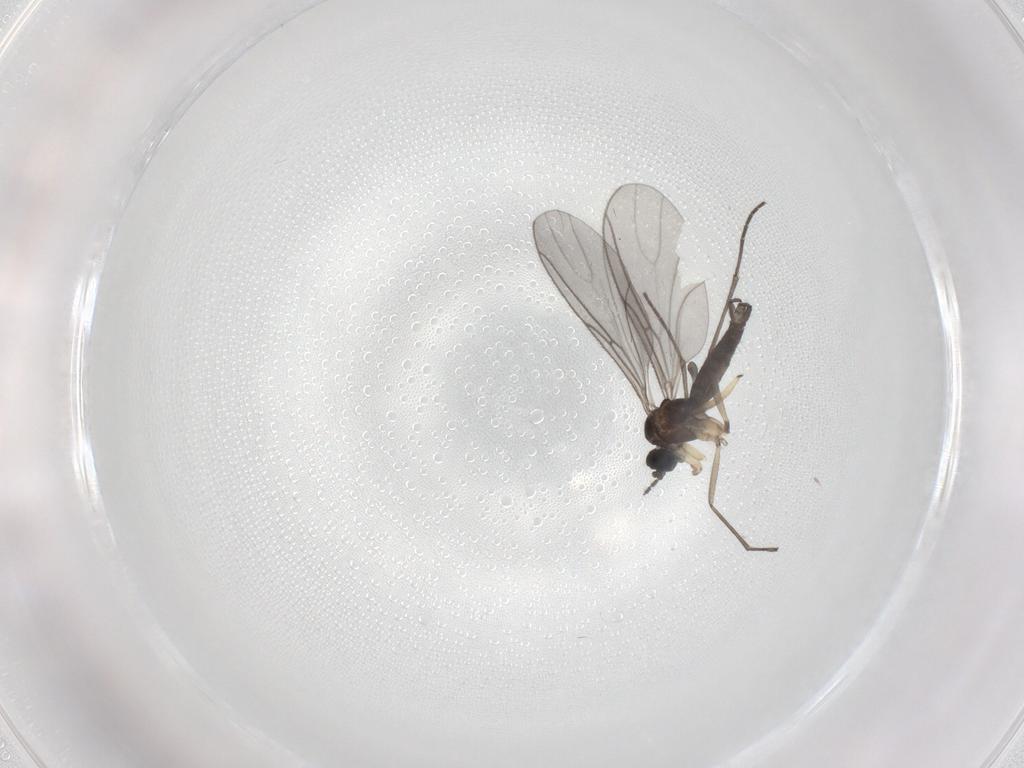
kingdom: Animalia
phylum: Arthropoda
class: Insecta
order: Diptera
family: Sciaridae
